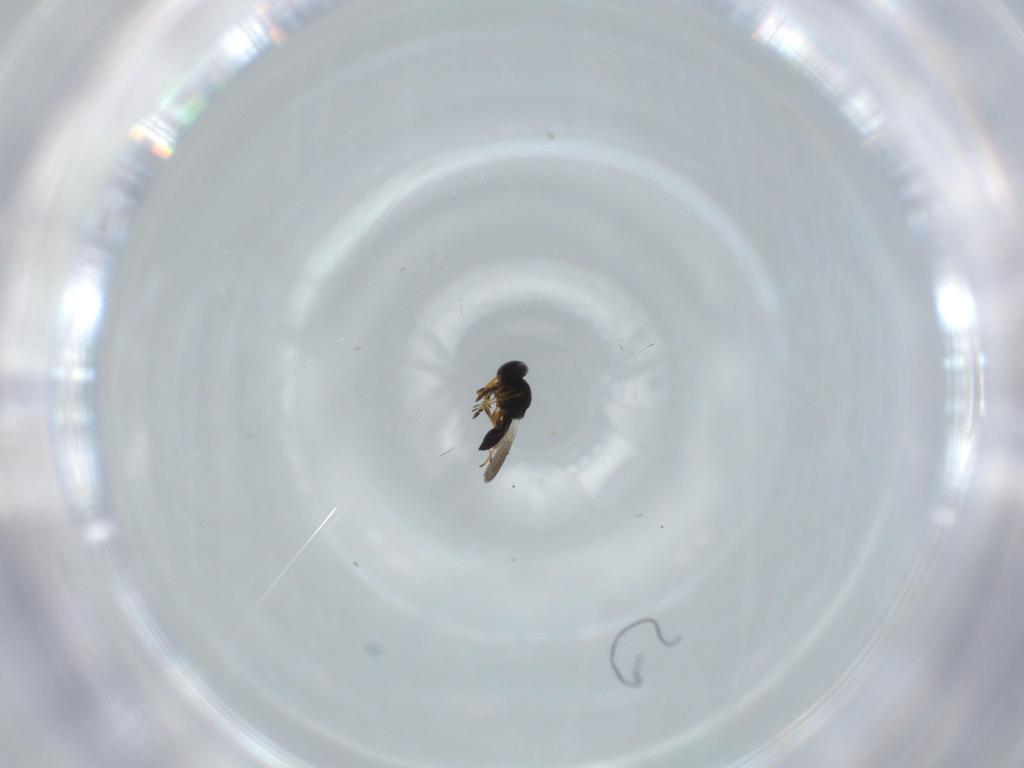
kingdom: Animalia
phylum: Arthropoda
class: Insecta
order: Hymenoptera
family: Platygastridae
